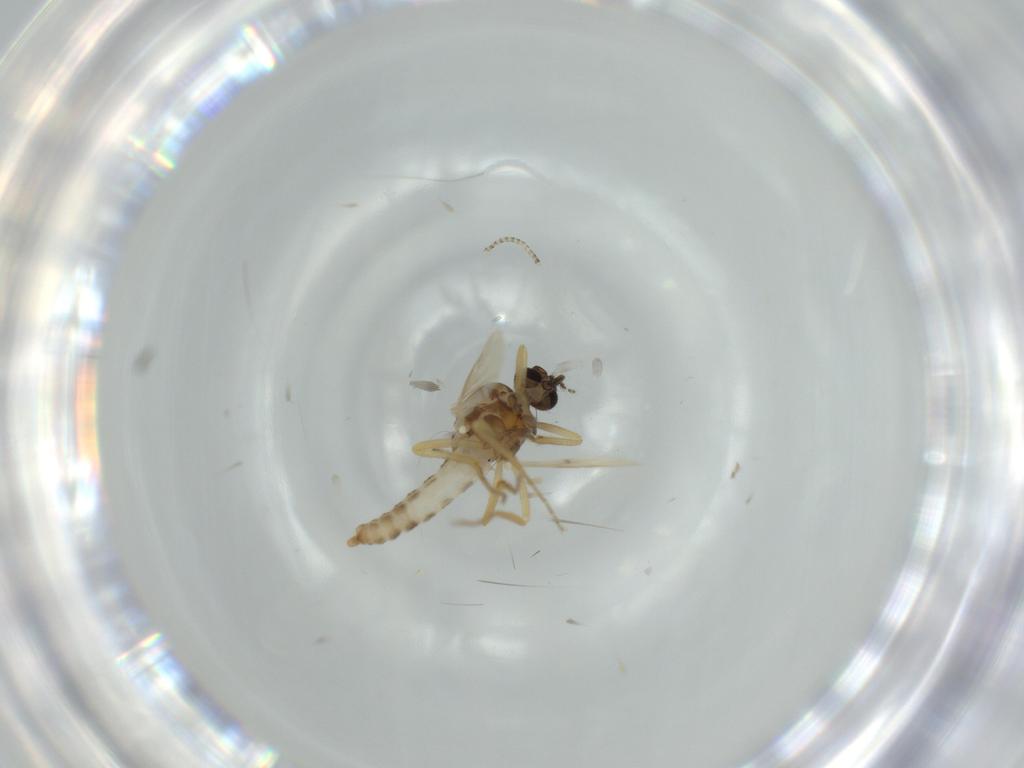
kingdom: Animalia
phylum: Arthropoda
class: Insecta
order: Diptera
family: Ceratopogonidae
